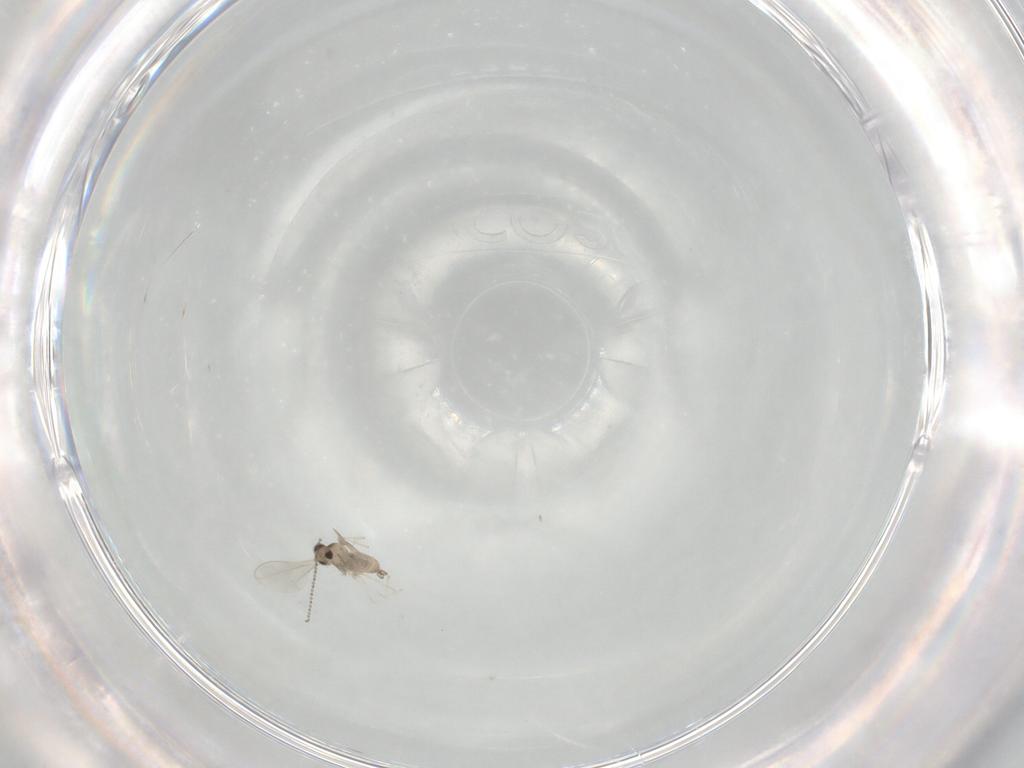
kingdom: Animalia
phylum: Arthropoda
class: Insecta
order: Diptera
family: Cecidomyiidae
